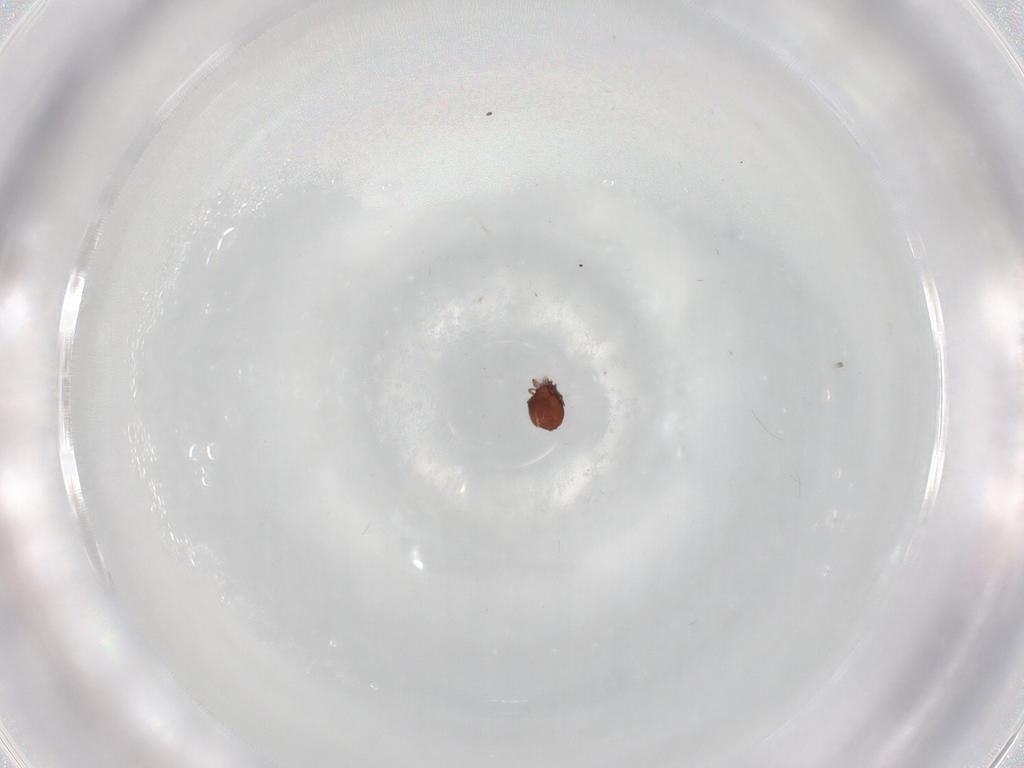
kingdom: Animalia
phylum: Arthropoda
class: Arachnida
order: Sarcoptiformes
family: Peloppiidae
